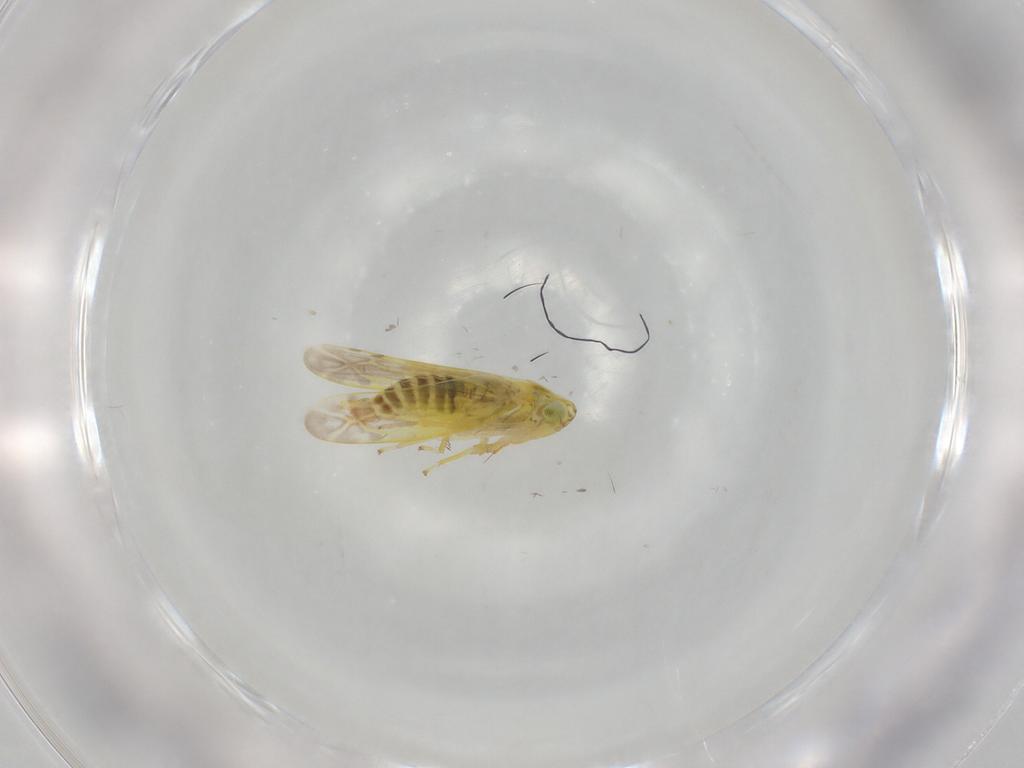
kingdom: Animalia
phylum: Arthropoda
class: Insecta
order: Hemiptera
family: Cicadellidae
